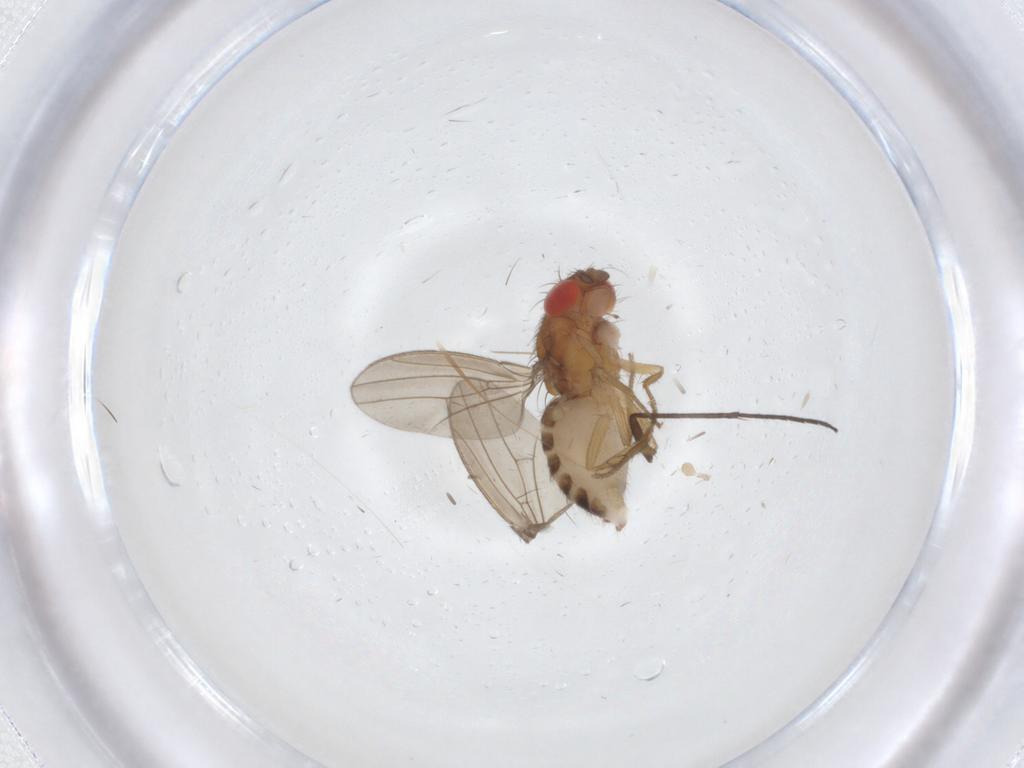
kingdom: Animalia
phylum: Arthropoda
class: Insecta
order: Diptera
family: Drosophilidae
